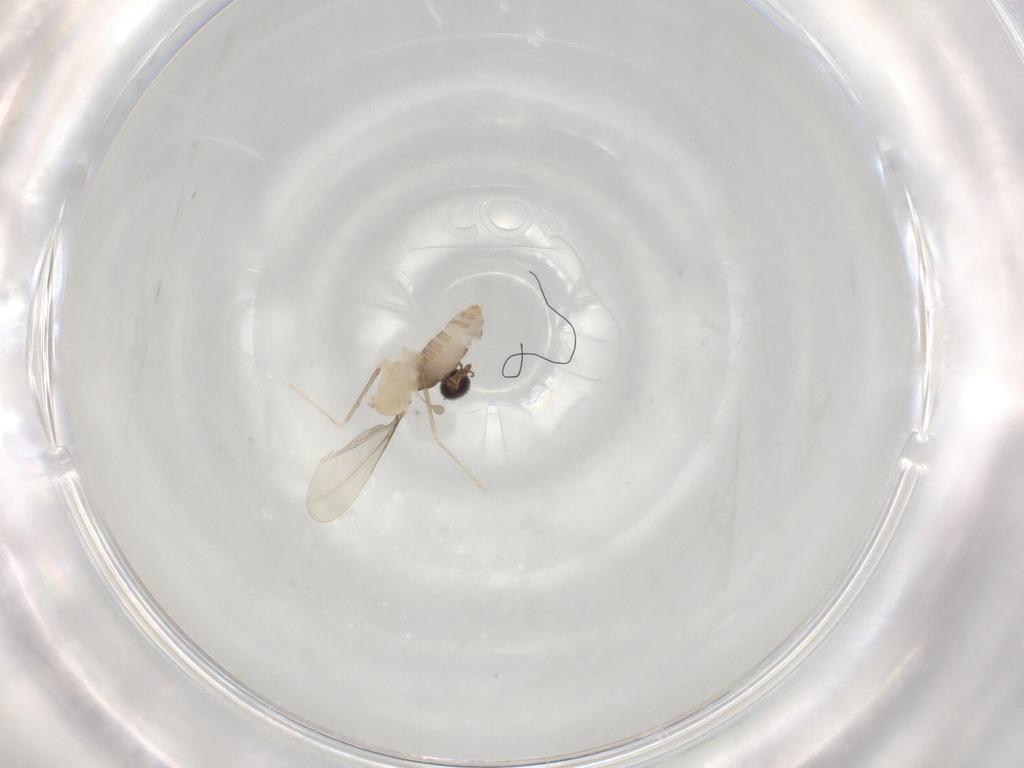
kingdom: Animalia
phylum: Arthropoda
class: Insecta
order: Diptera
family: Cecidomyiidae
